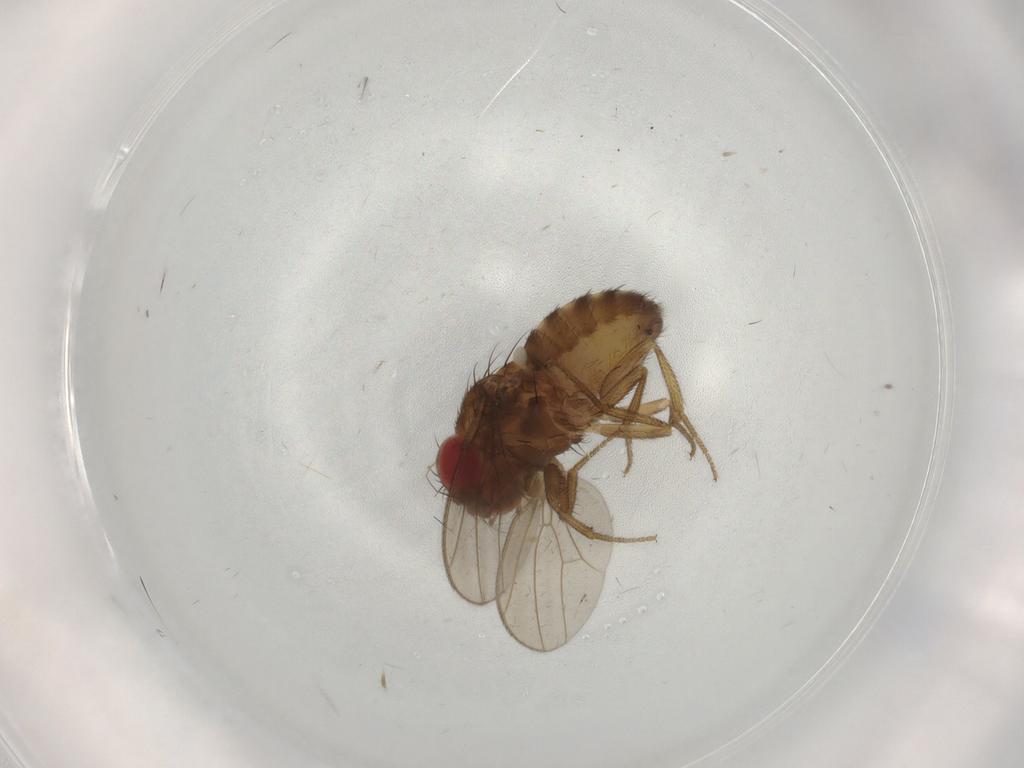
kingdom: Animalia
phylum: Arthropoda
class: Insecta
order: Diptera
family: Drosophilidae
